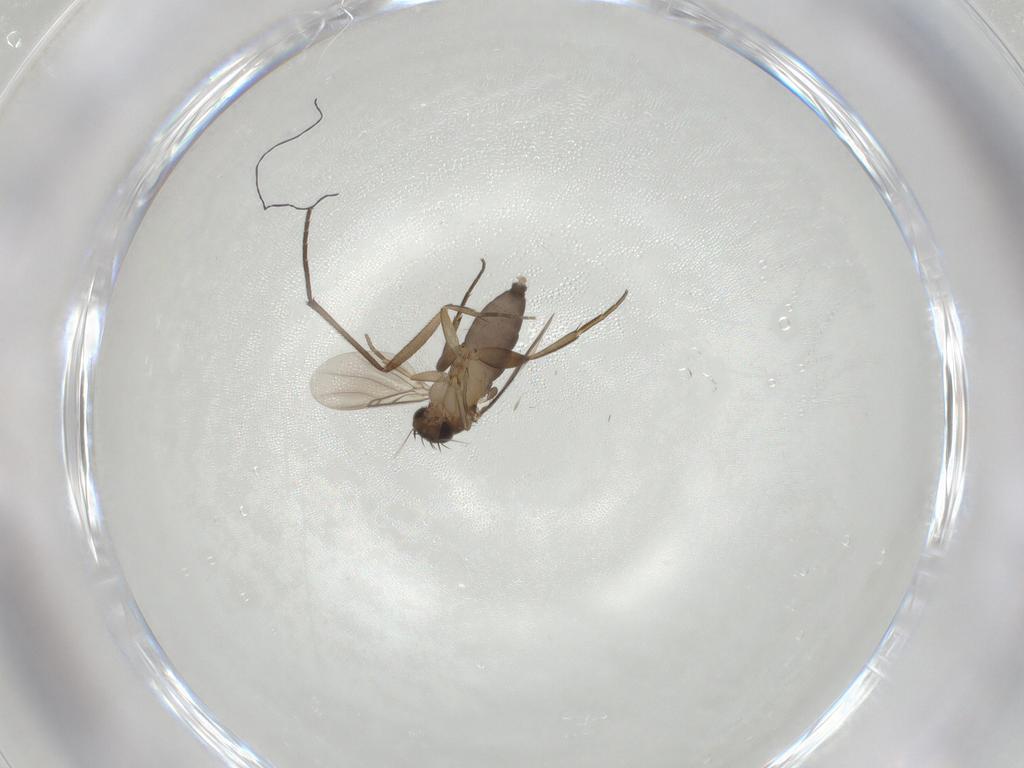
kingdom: Animalia
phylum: Arthropoda
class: Insecta
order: Diptera
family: Phoridae
